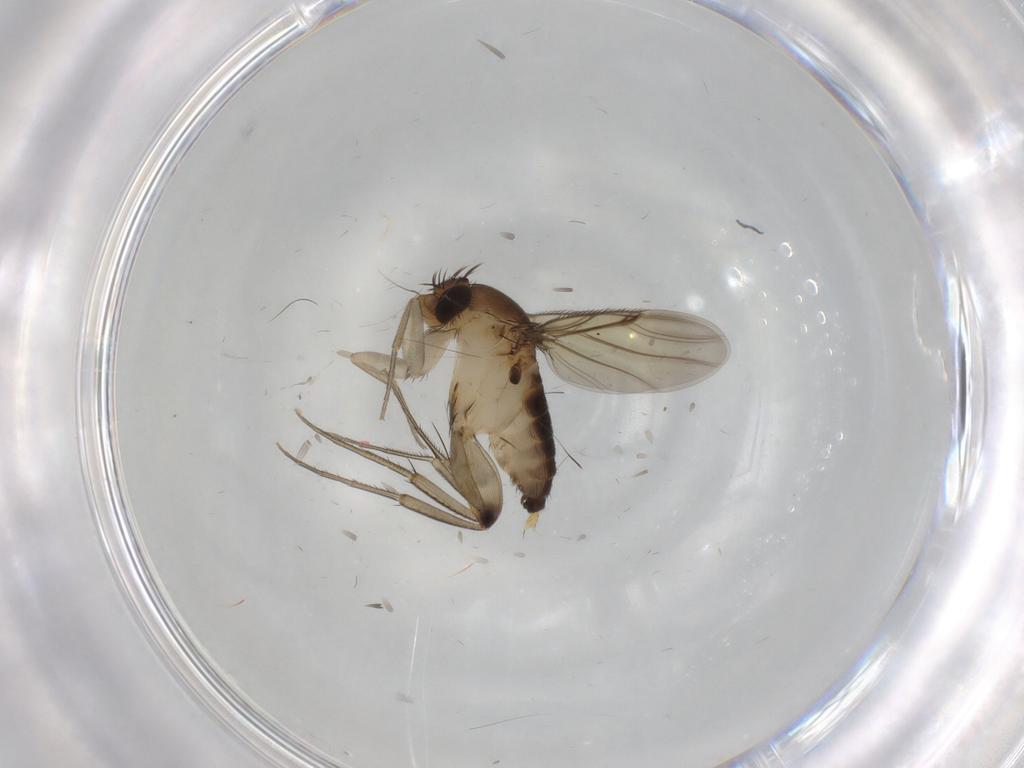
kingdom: Animalia
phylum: Arthropoda
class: Insecta
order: Diptera
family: Phoridae
